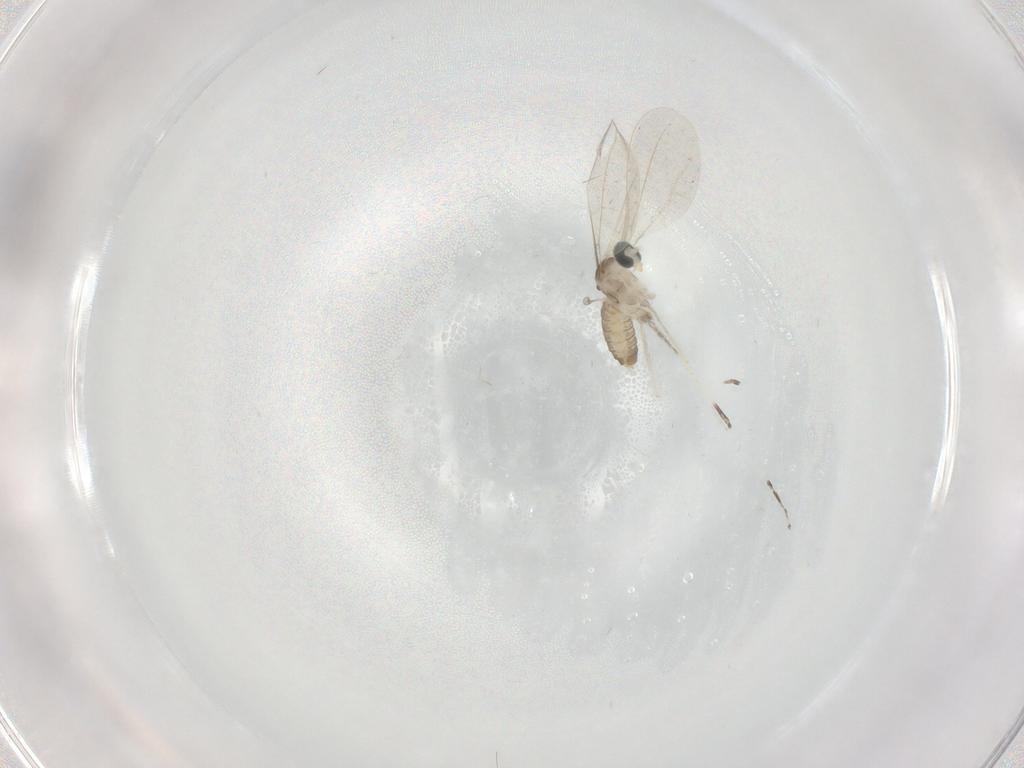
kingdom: Animalia
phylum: Arthropoda
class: Insecta
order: Diptera
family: Cecidomyiidae
